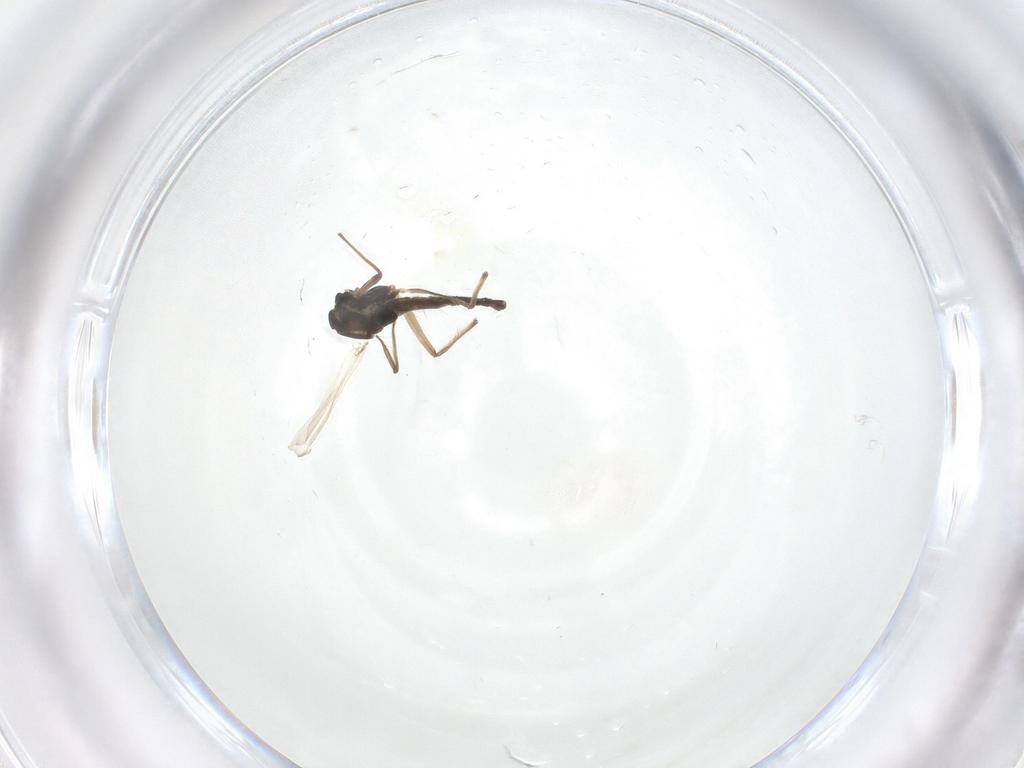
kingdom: Animalia
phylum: Arthropoda
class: Insecta
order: Diptera
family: Chironomidae
